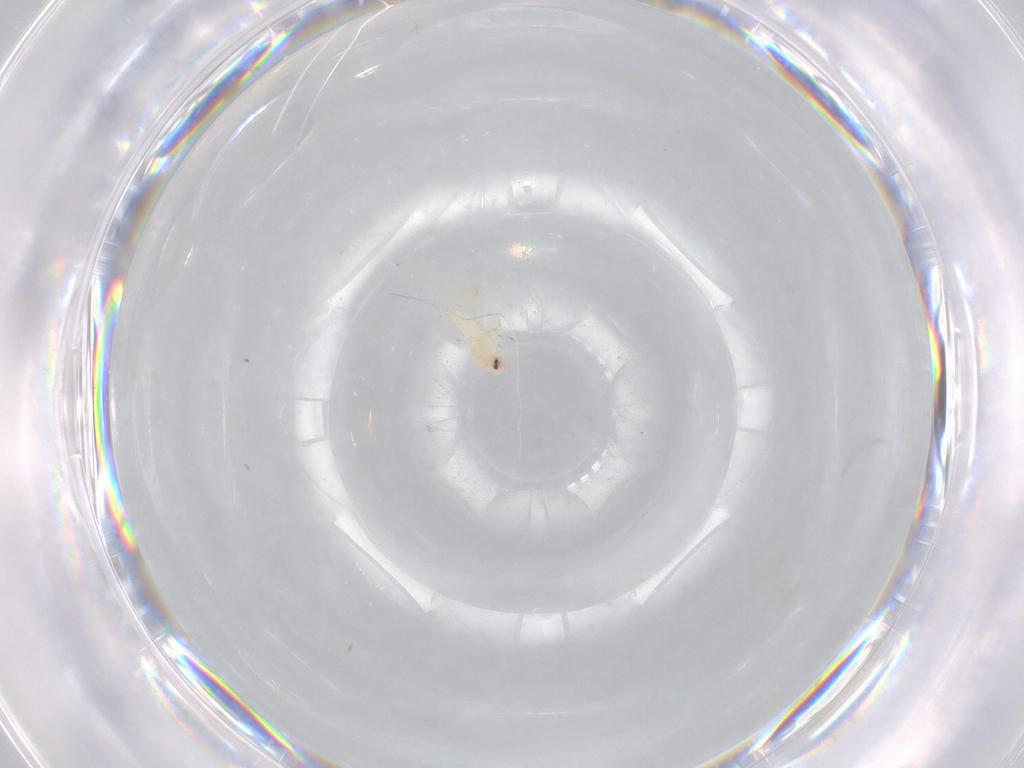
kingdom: Animalia
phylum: Arthropoda
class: Insecta
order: Hemiptera
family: Aleyrodidae
